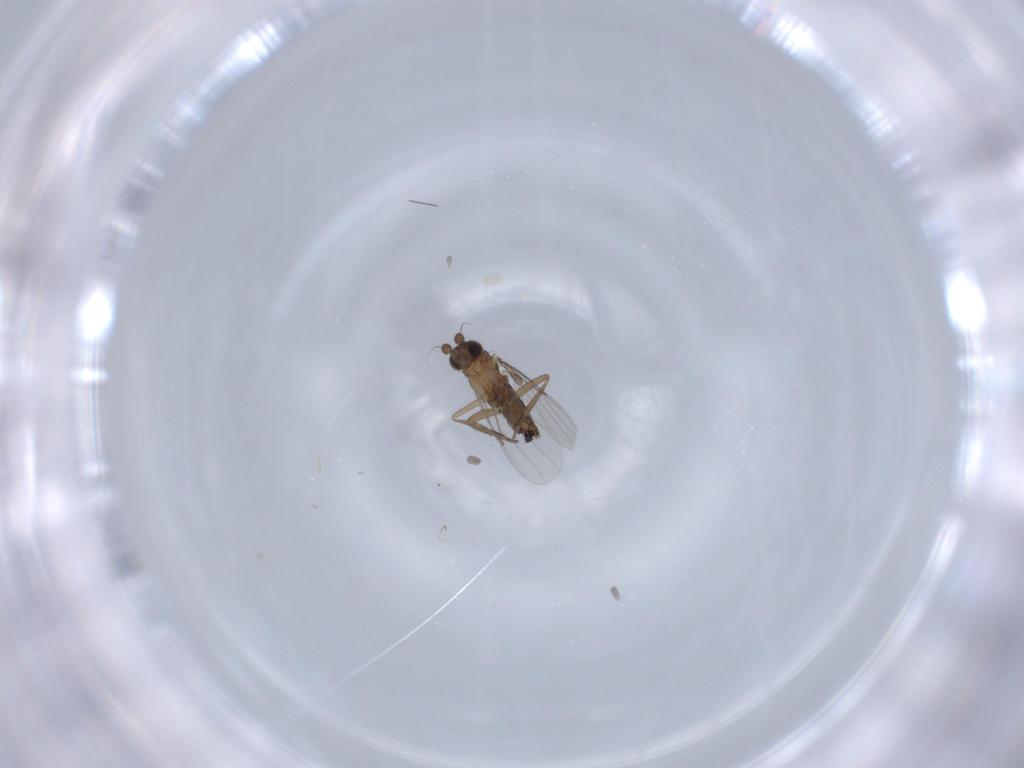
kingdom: Animalia
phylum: Arthropoda
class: Insecta
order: Diptera
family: Phoridae
